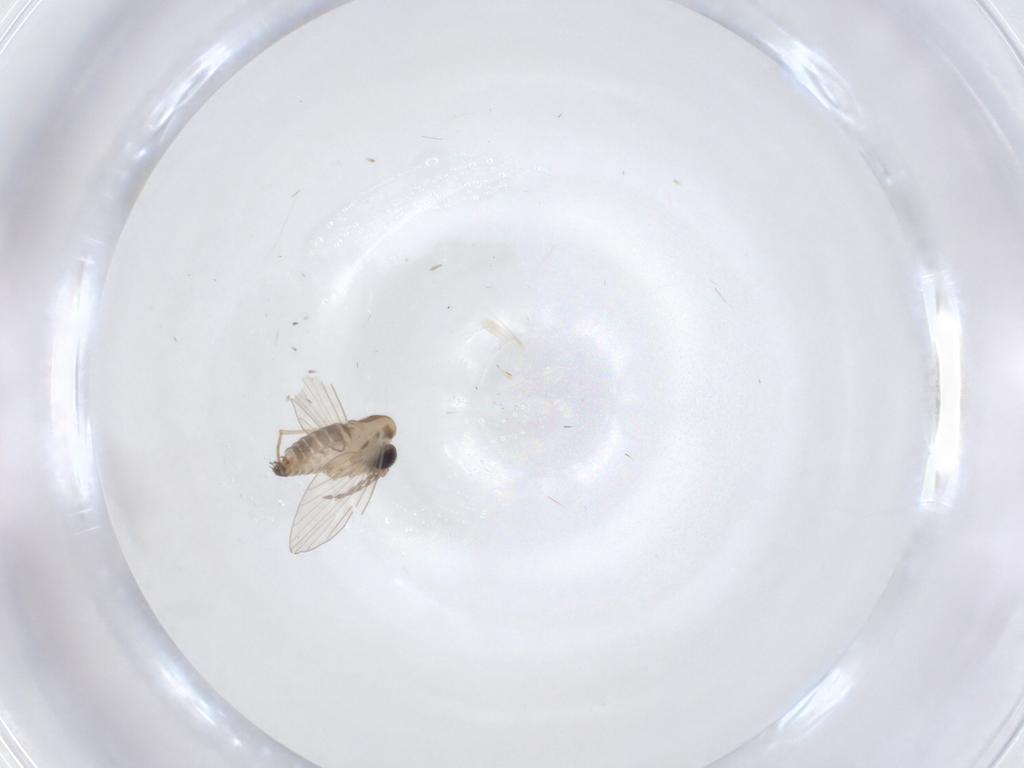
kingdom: Animalia
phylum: Arthropoda
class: Insecta
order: Diptera
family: Psychodidae
